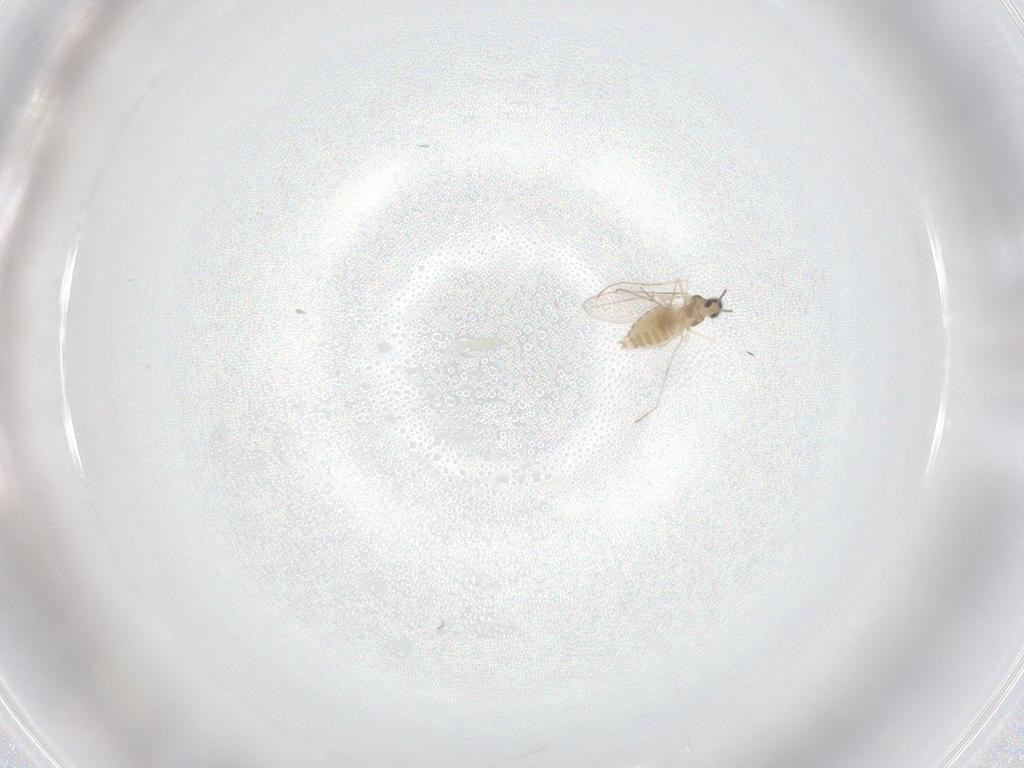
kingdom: Animalia
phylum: Arthropoda
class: Insecta
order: Diptera
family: Cecidomyiidae
